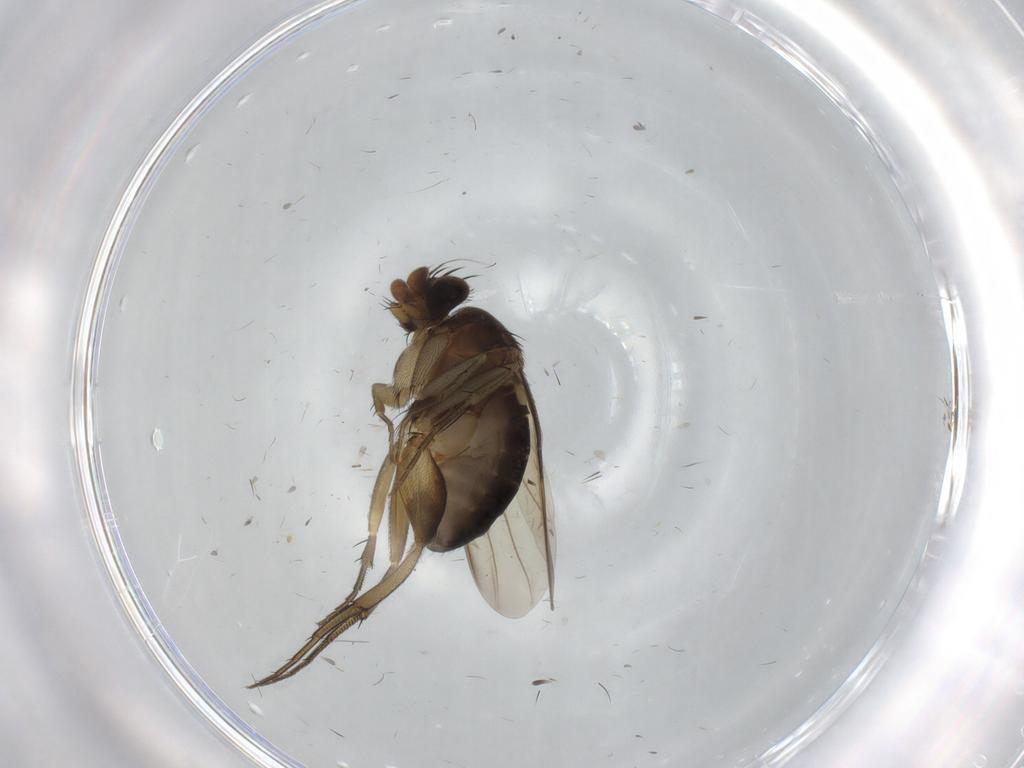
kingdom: Animalia
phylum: Arthropoda
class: Insecta
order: Diptera
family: Phoridae
